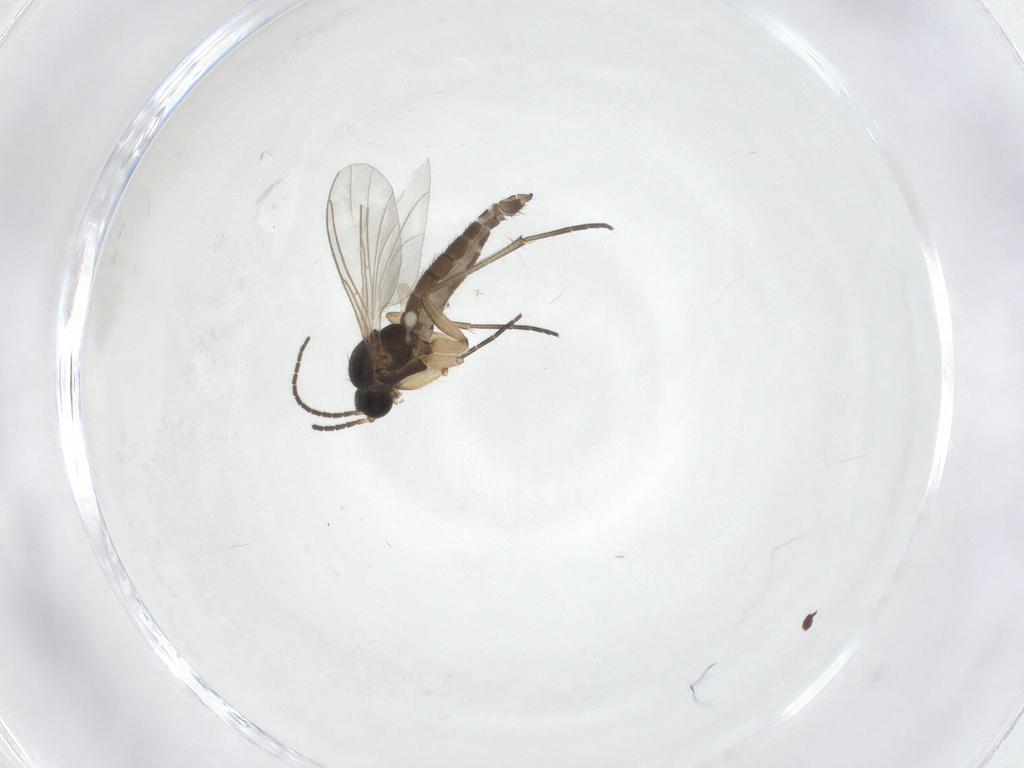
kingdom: Animalia
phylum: Arthropoda
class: Insecta
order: Diptera
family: Sciaridae
